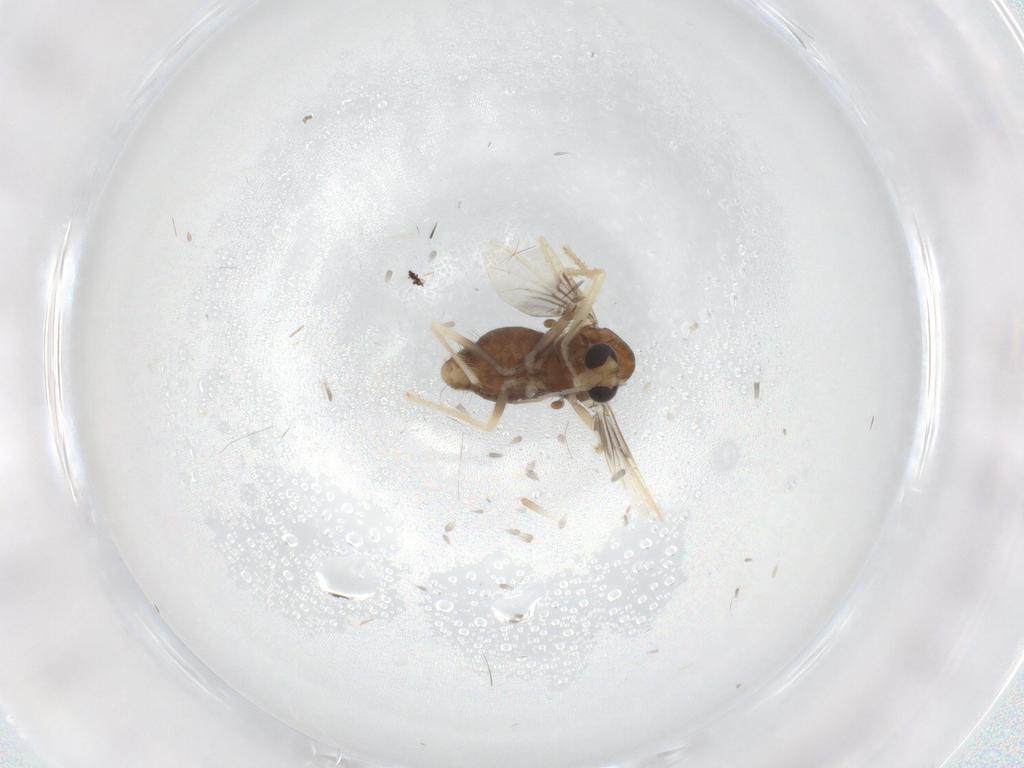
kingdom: Animalia
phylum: Arthropoda
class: Insecta
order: Diptera
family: Chironomidae
